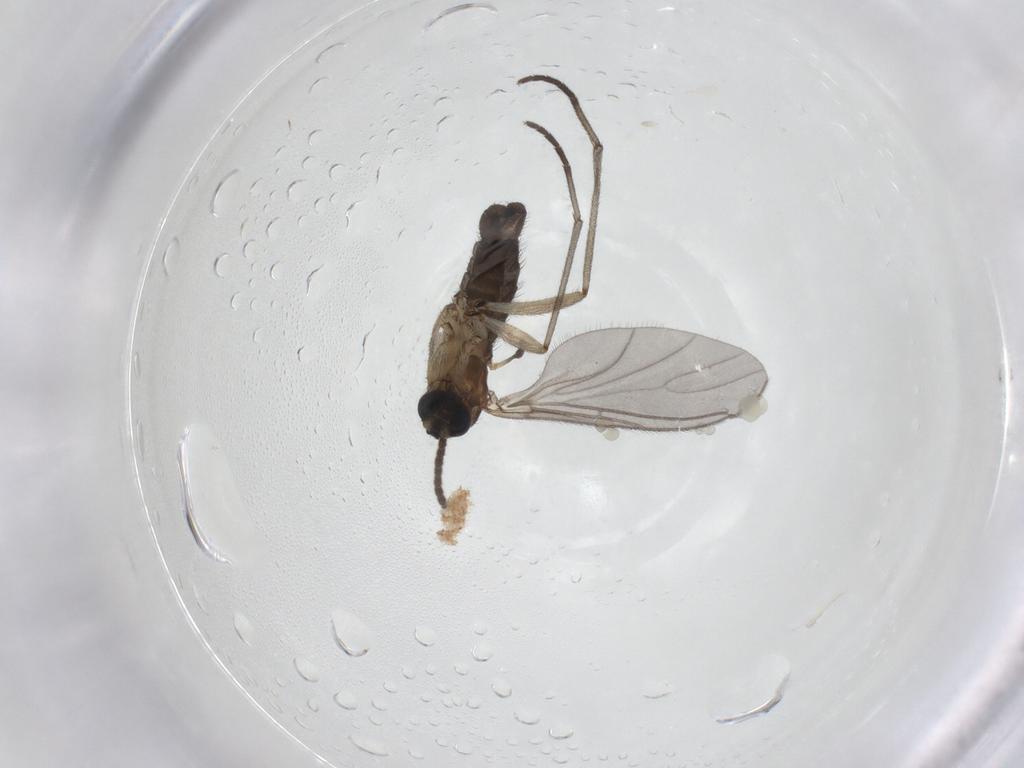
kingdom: Animalia
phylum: Arthropoda
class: Insecta
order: Diptera
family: Sciaridae
